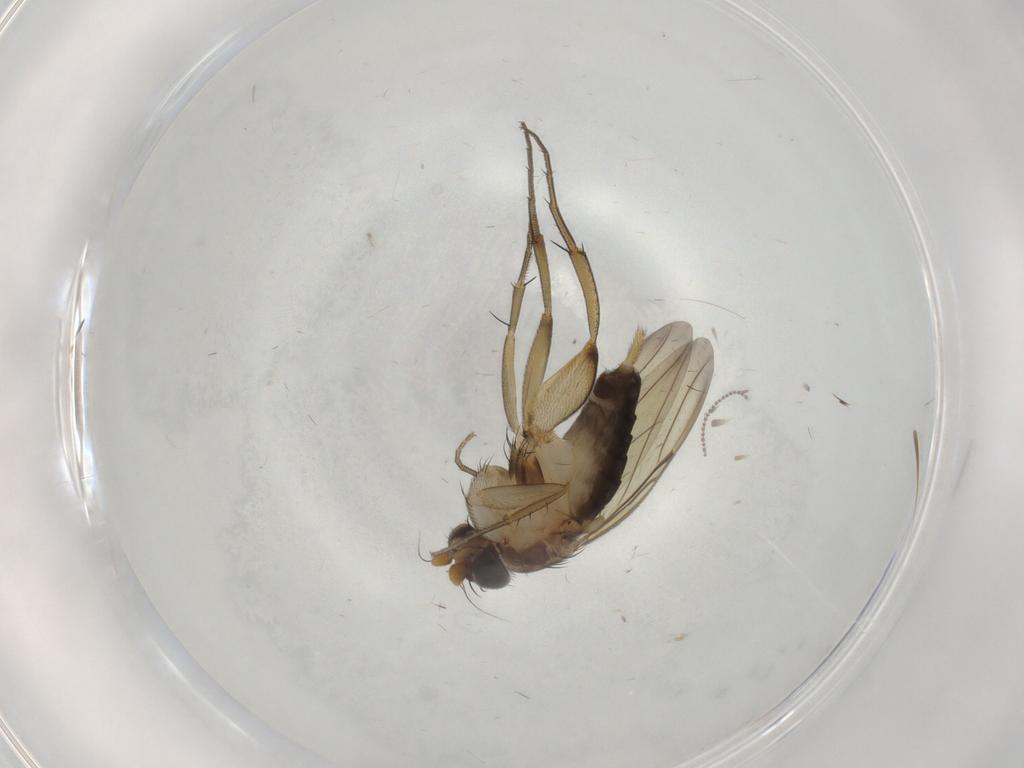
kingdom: Animalia
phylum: Arthropoda
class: Insecta
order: Diptera
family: Phoridae
